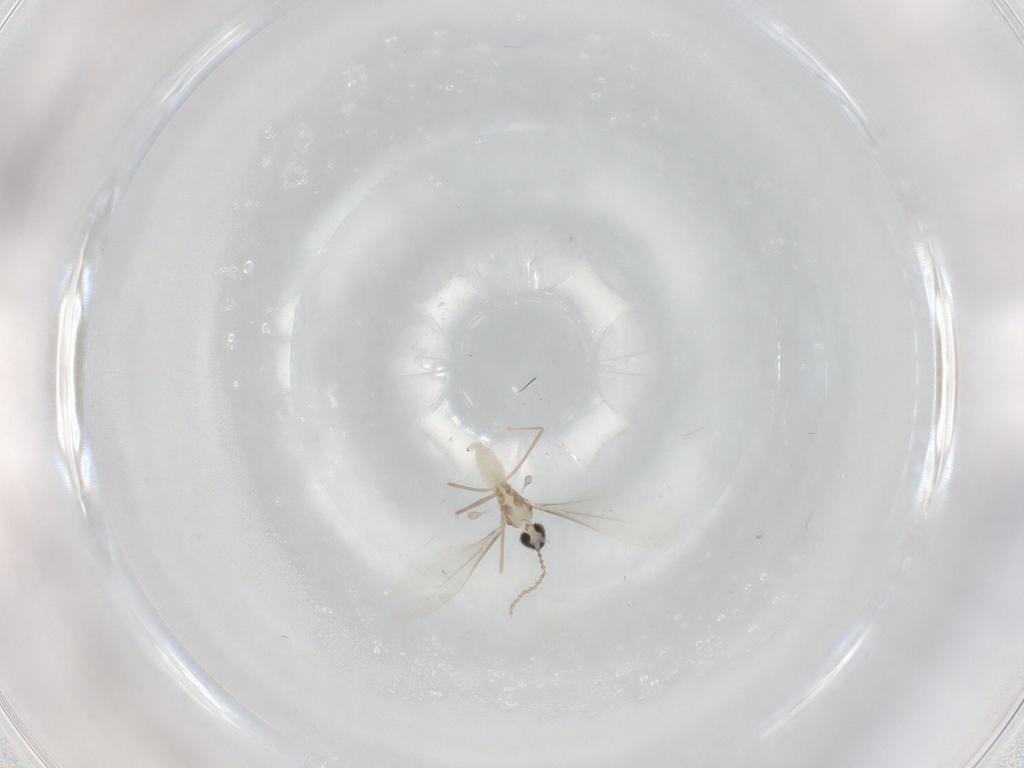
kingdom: Animalia
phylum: Arthropoda
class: Insecta
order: Diptera
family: Cecidomyiidae
